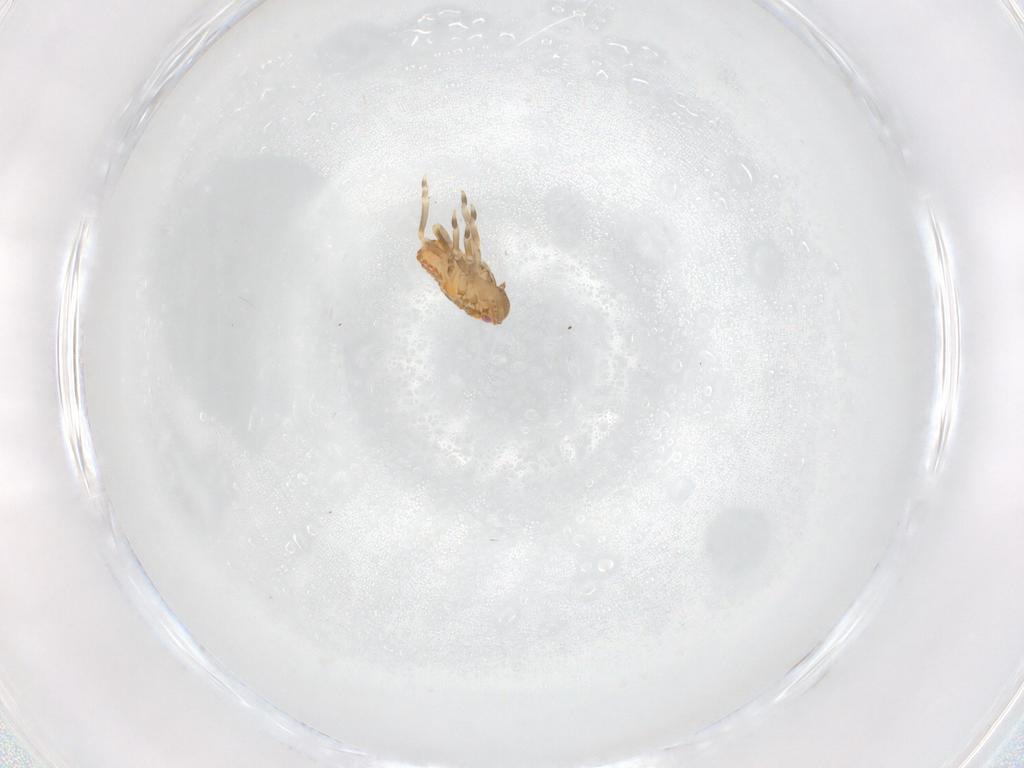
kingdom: Animalia
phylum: Arthropoda
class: Insecta
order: Hemiptera
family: Flatidae
